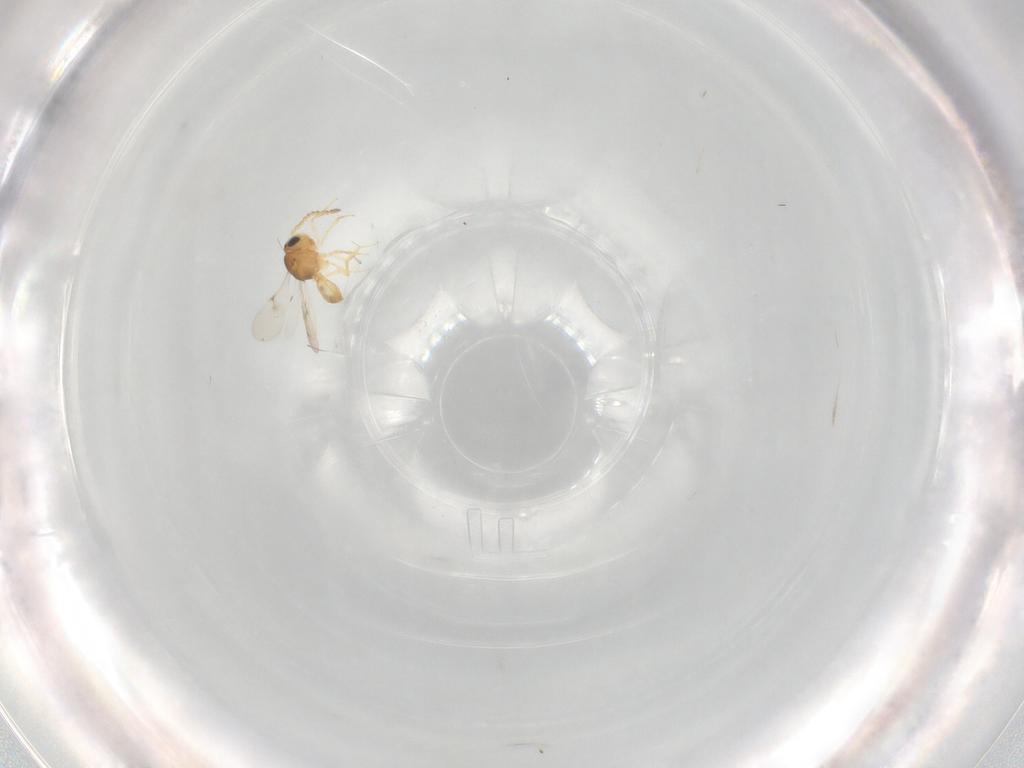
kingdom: Animalia
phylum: Arthropoda
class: Insecta
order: Hymenoptera
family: Scelionidae
